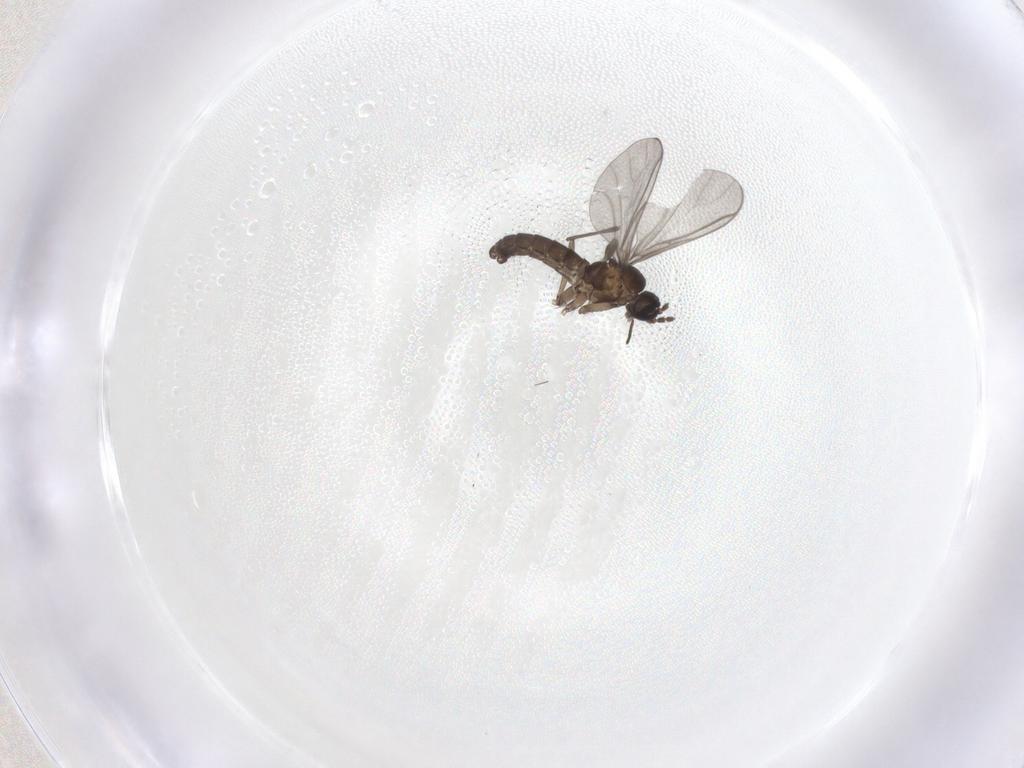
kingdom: Animalia
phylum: Arthropoda
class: Insecta
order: Diptera
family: Sciaridae
